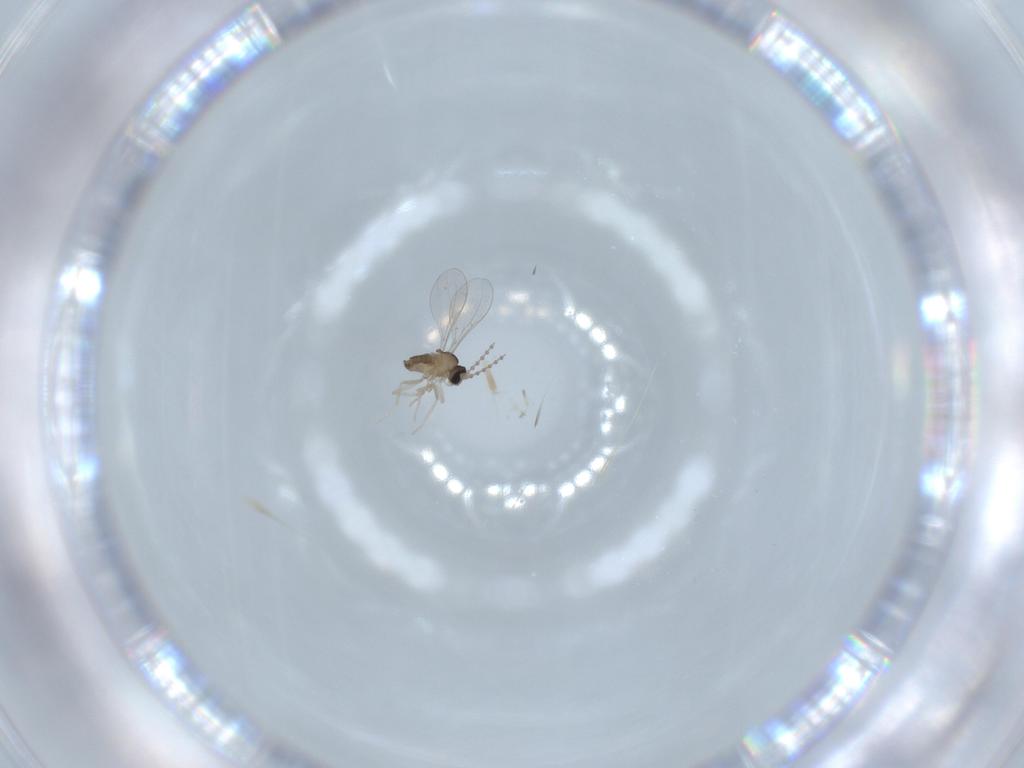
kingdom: Animalia
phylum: Arthropoda
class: Insecta
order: Diptera
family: Cecidomyiidae
